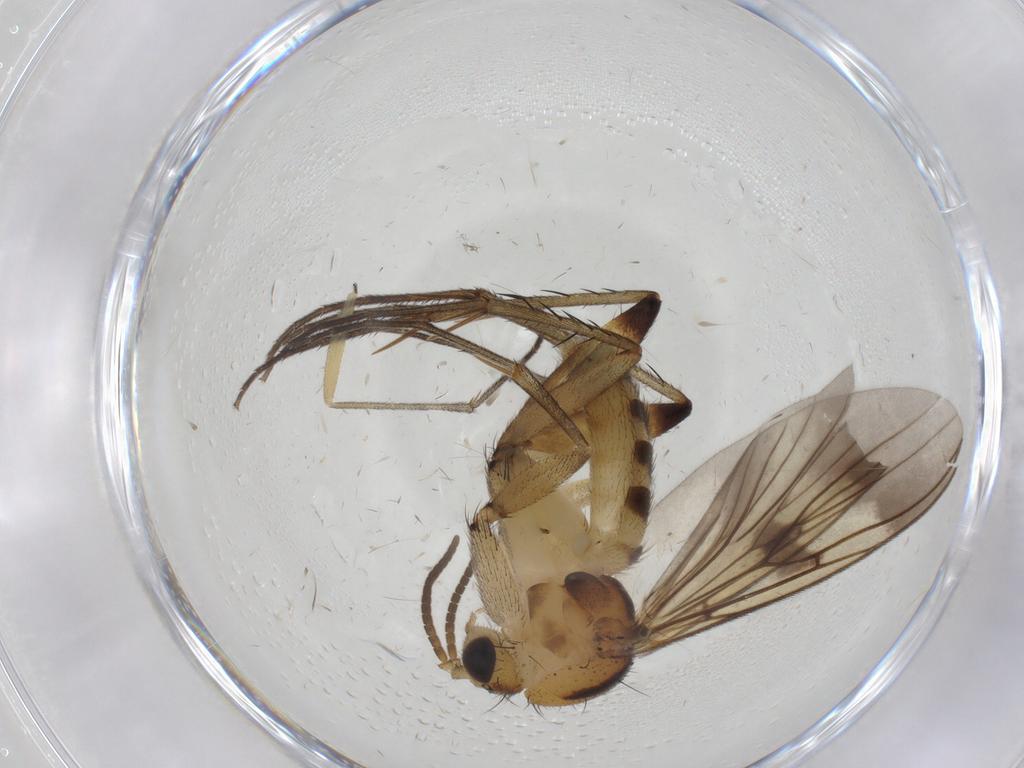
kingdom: Animalia
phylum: Arthropoda
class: Insecta
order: Diptera
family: Mycetophilidae
